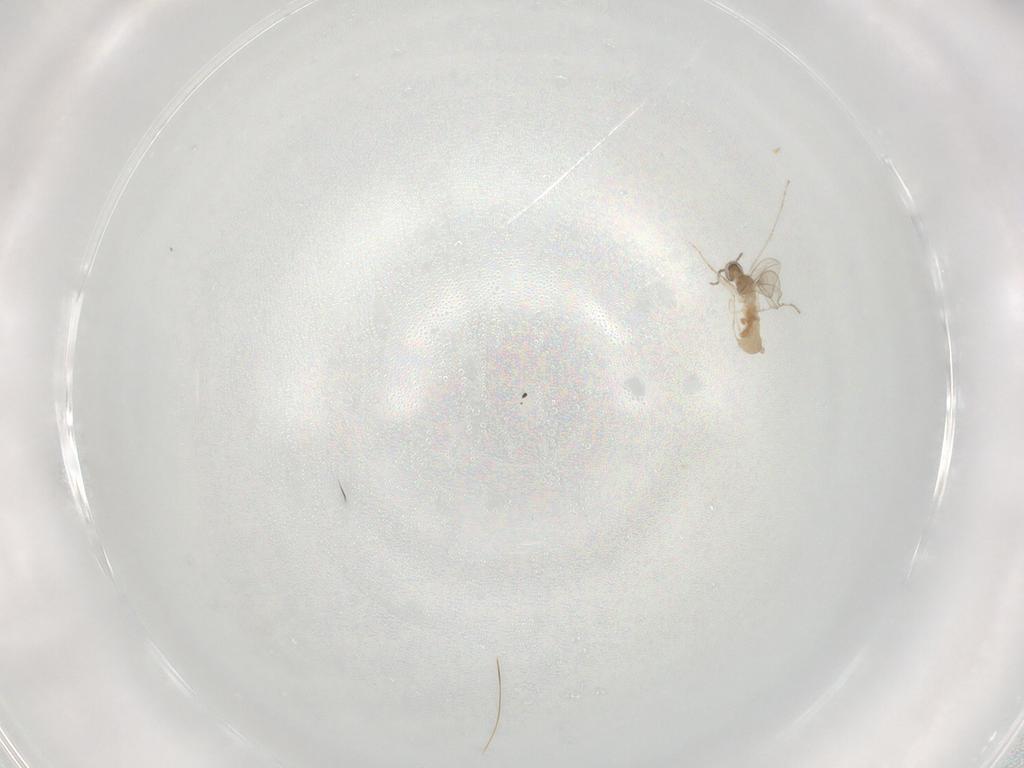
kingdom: Animalia
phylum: Arthropoda
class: Insecta
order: Diptera
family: Cecidomyiidae
